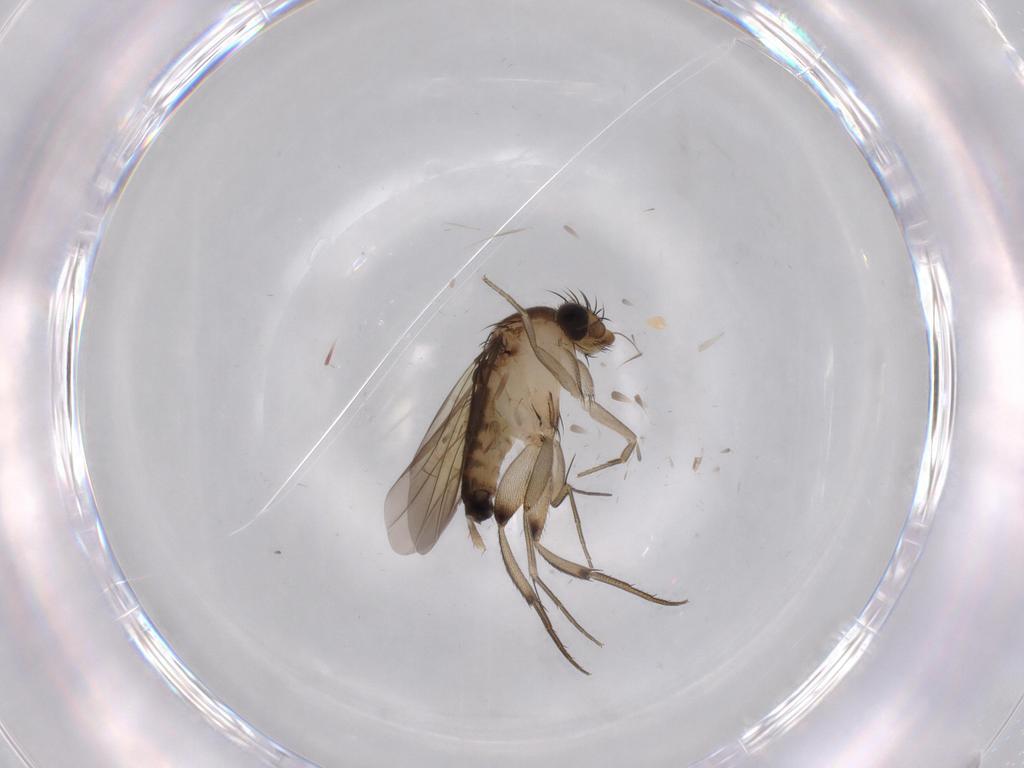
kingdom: Animalia
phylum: Arthropoda
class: Insecta
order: Diptera
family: Phoridae
